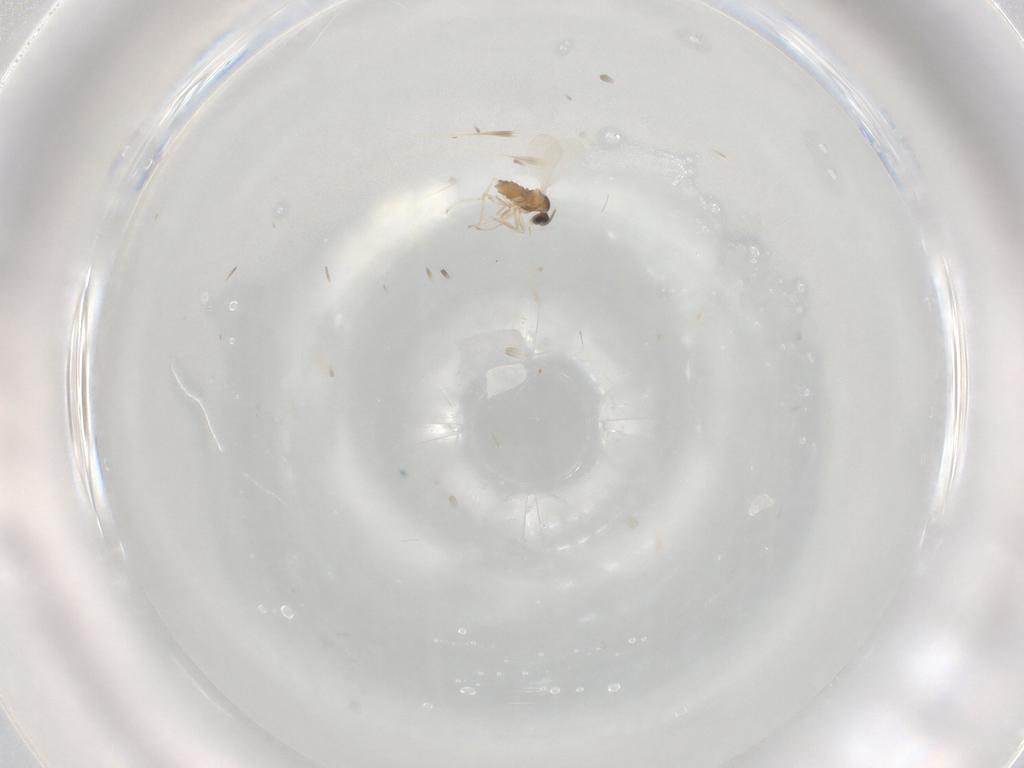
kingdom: Animalia
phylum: Arthropoda
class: Insecta
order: Diptera
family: Cecidomyiidae
